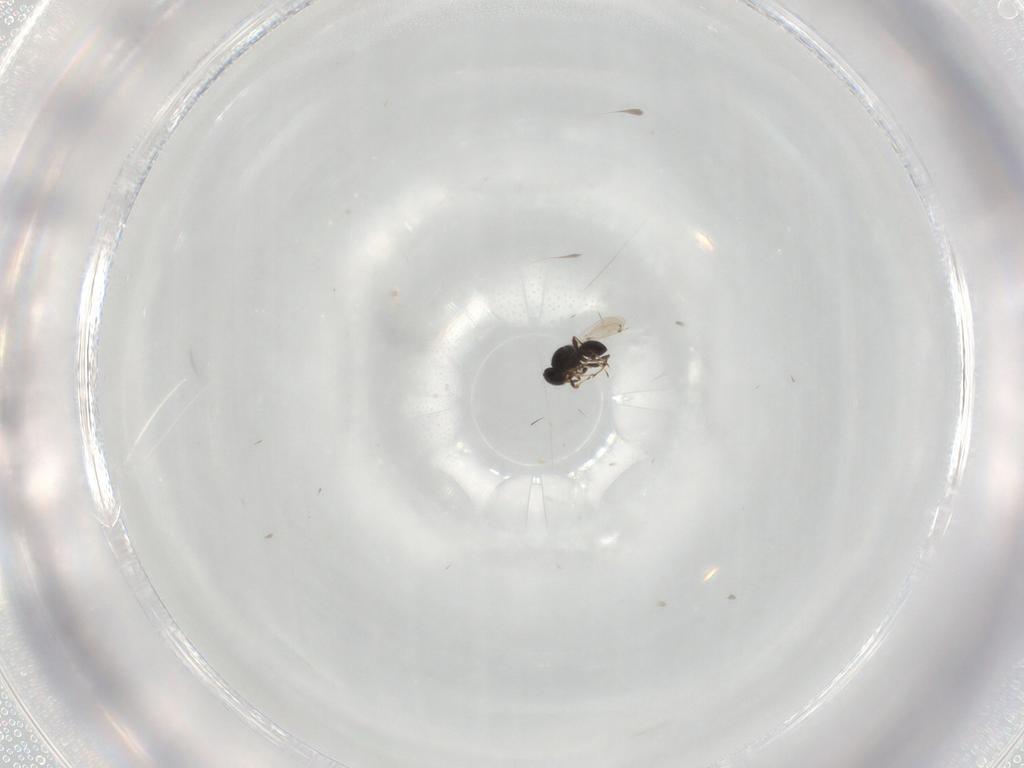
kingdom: Animalia
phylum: Arthropoda
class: Insecta
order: Hymenoptera
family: Platygastridae
